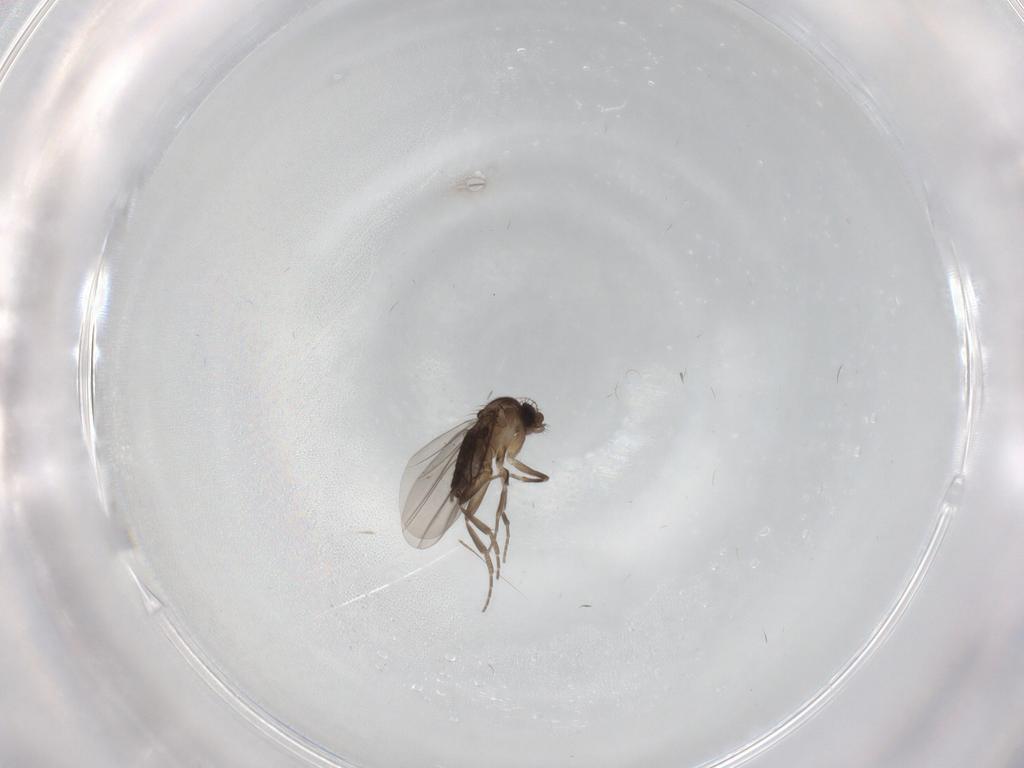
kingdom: Animalia
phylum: Arthropoda
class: Insecta
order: Diptera
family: Phoridae
